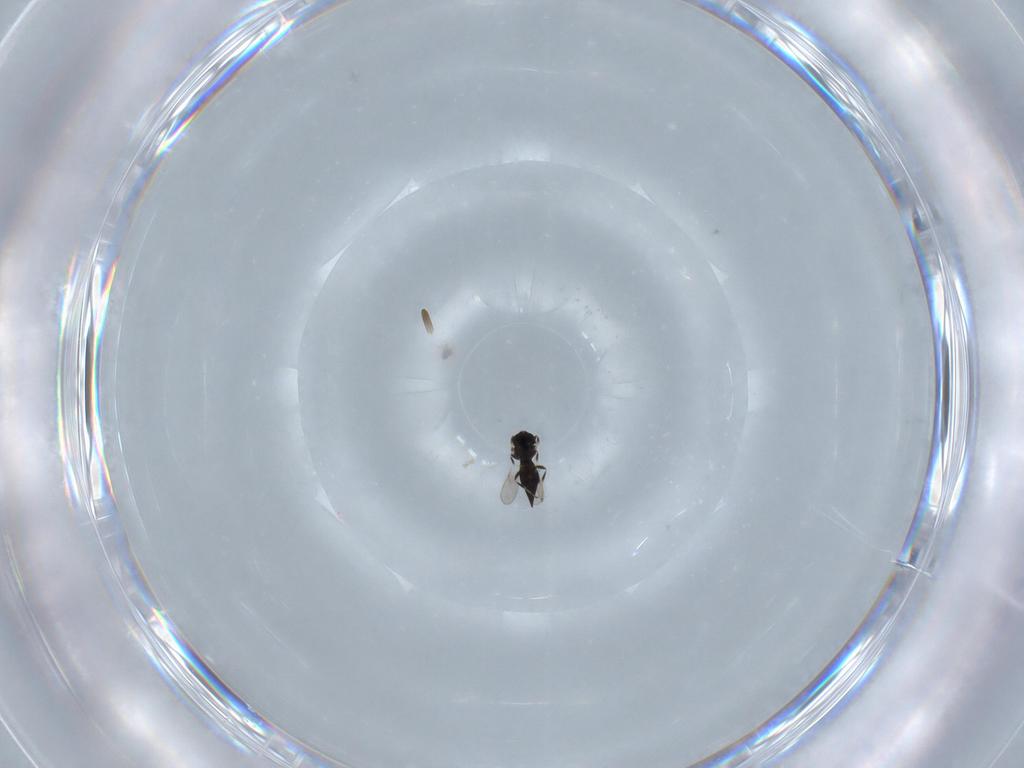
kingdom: Animalia
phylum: Arthropoda
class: Insecta
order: Hymenoptera
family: Scelionidae
